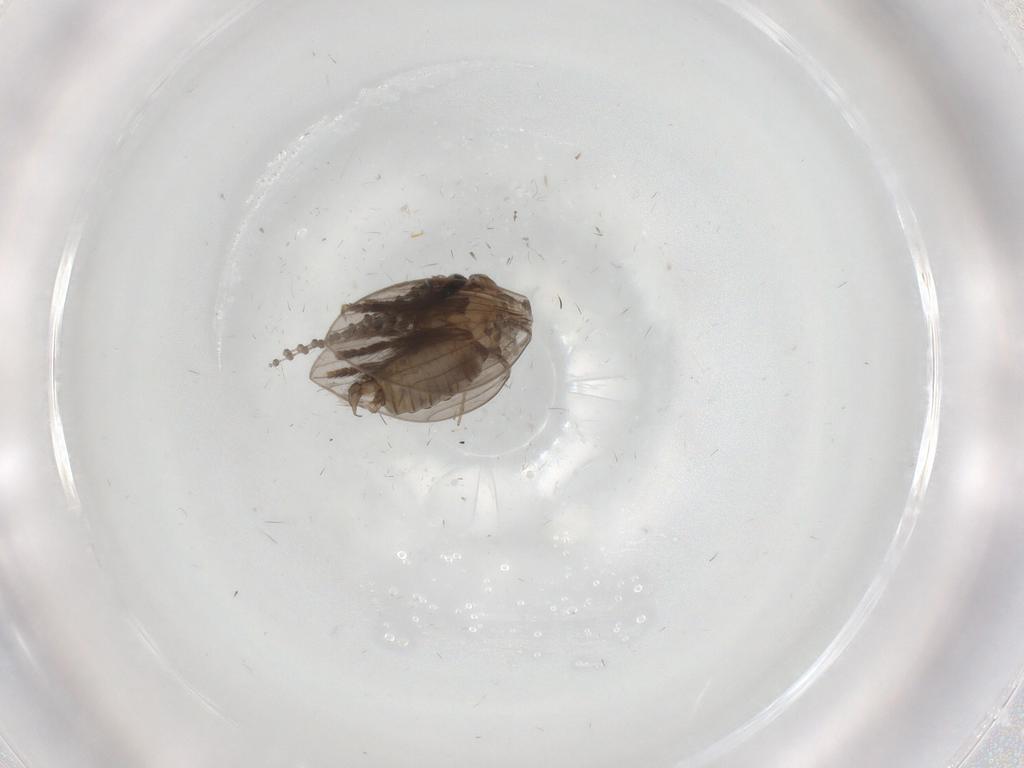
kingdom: Animalia
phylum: Arthropoda
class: Insecta
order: Diptera
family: Psychodidae
